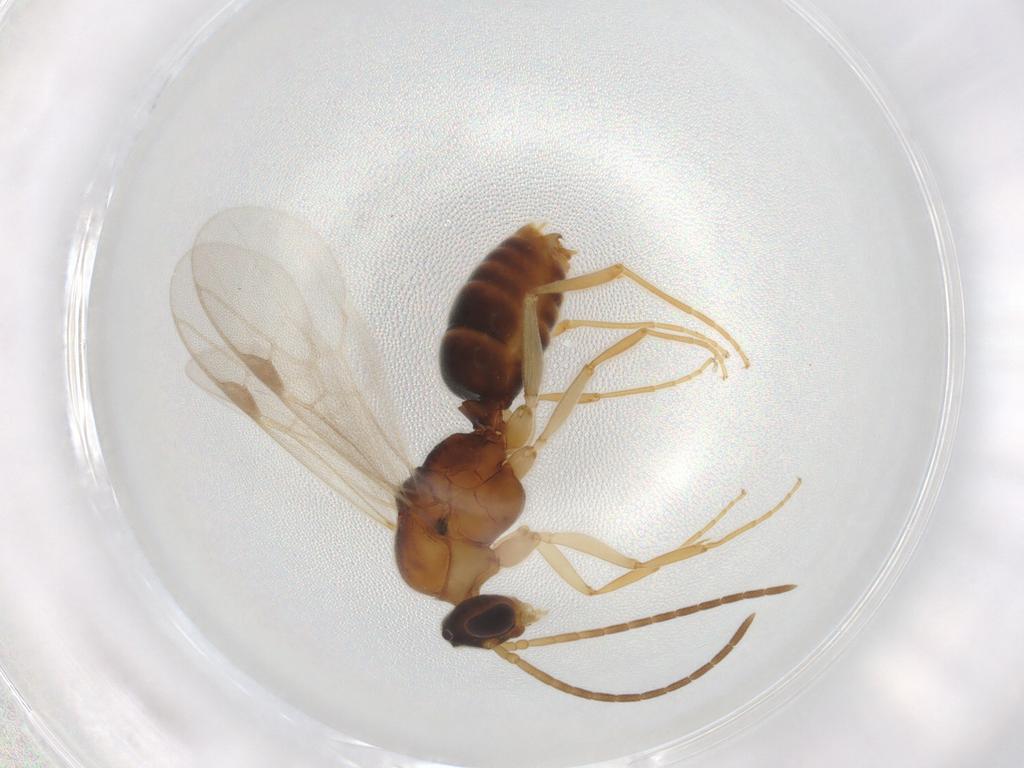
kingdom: Animalia
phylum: Arthropoda
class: Insecta
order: Hymenoptera
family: Formicidae
